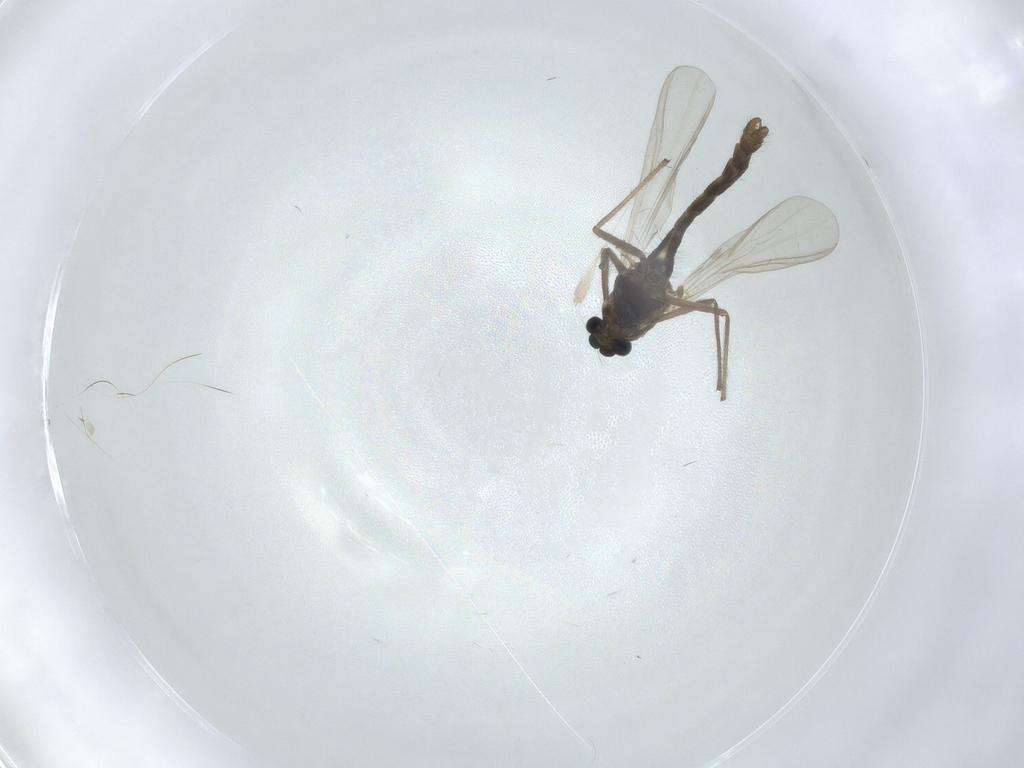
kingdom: Animalia
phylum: Arthropoda
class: Insecta
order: Diptera
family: Chironomidae
